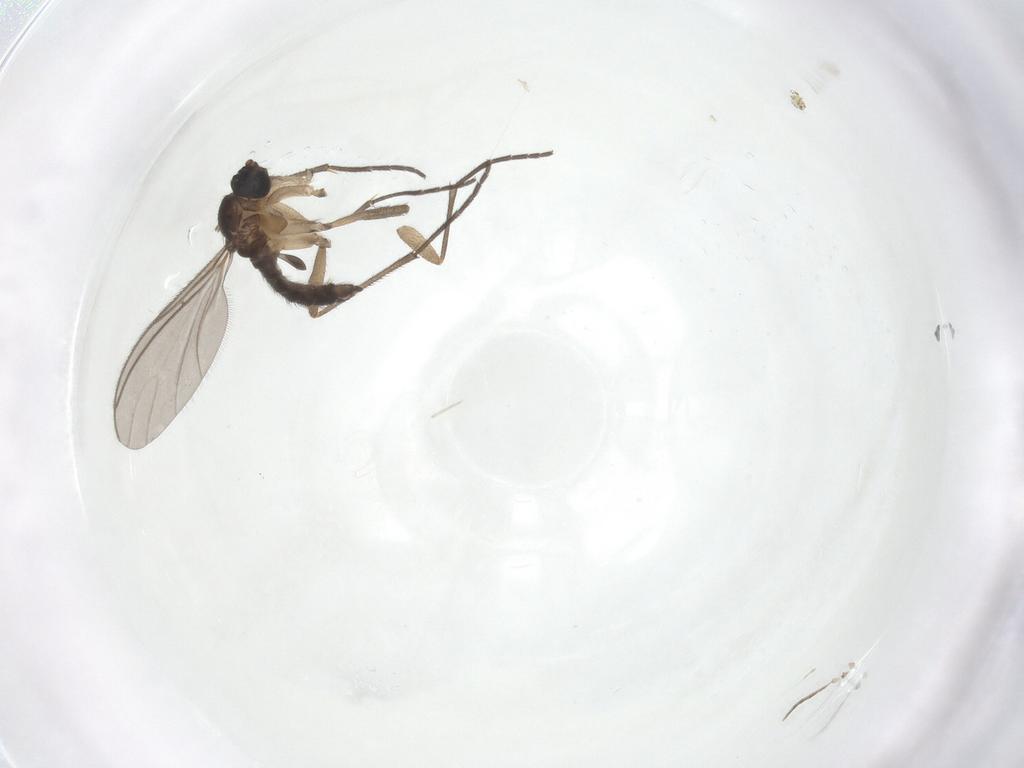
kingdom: Animalia
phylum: Arthropoda
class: Insecta
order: Diptera
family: Sciaridae
